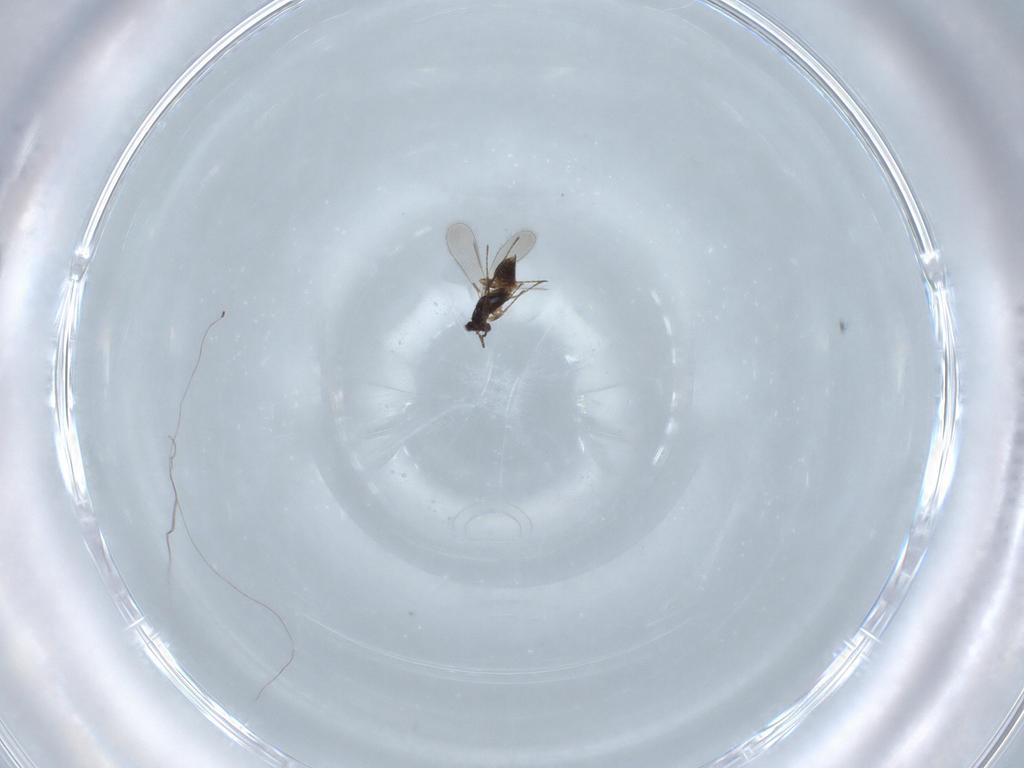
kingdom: Animalia
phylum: Arthropoda
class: Insecta
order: Hymenoptera
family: Mymaridae
